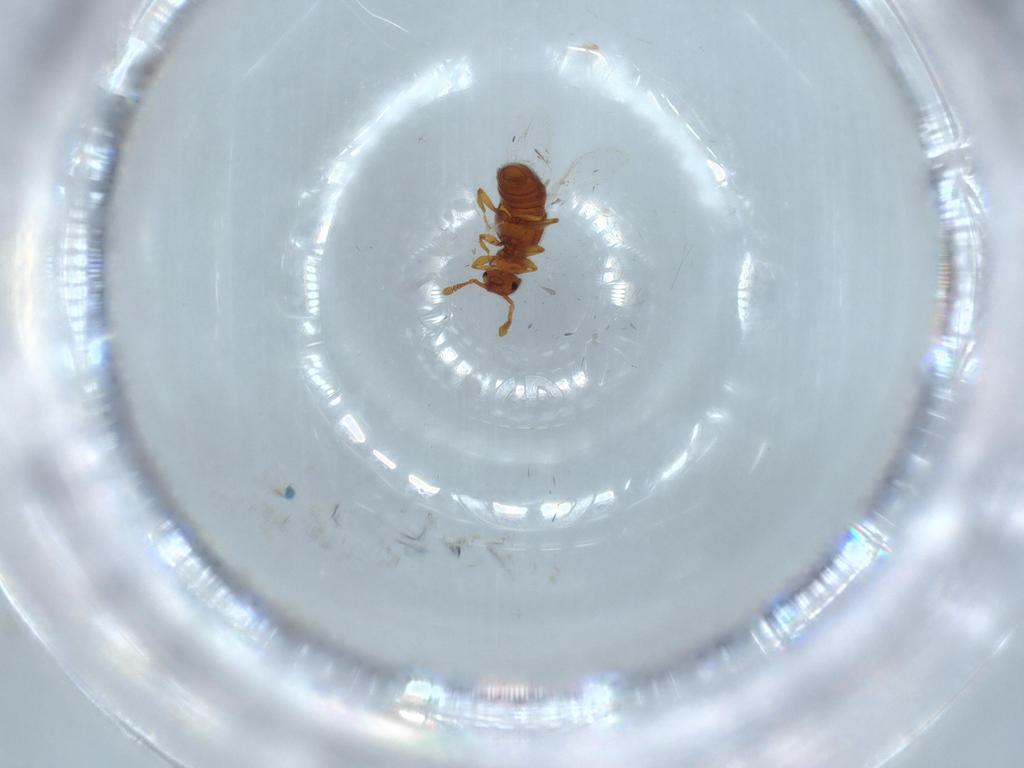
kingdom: Animalia
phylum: Arthropoda
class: Insecta
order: Coleoptera
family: Staphylinidae
